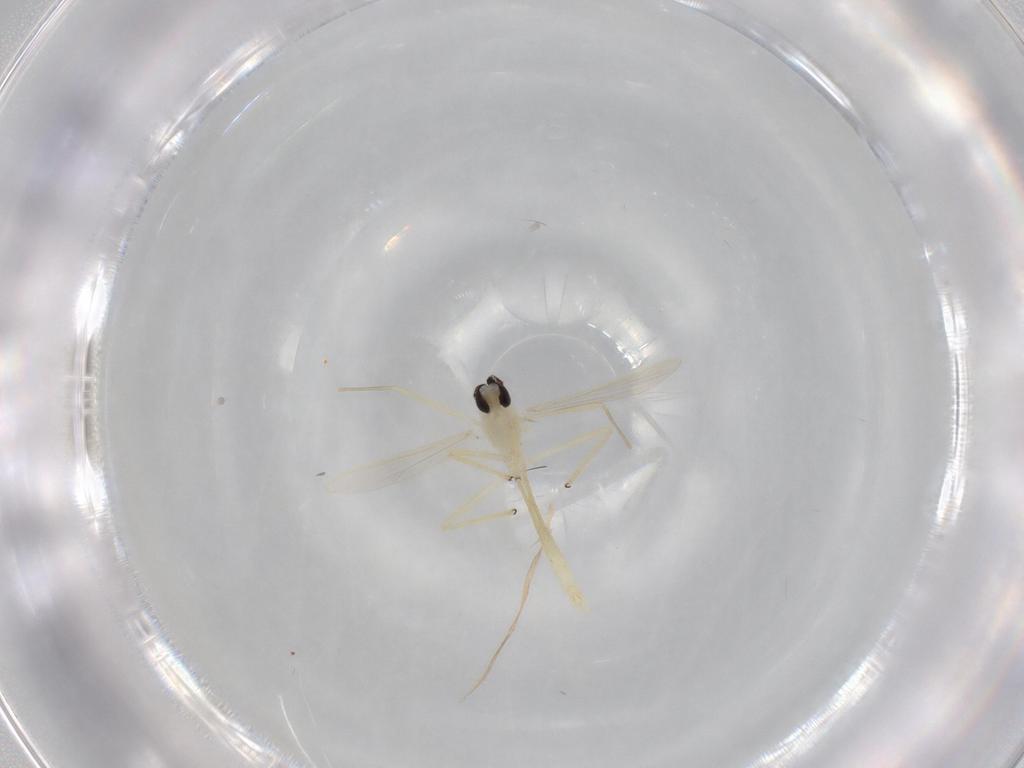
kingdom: Animalia
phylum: Arthropoda
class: Insecta
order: Diptera
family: Chironomidae
